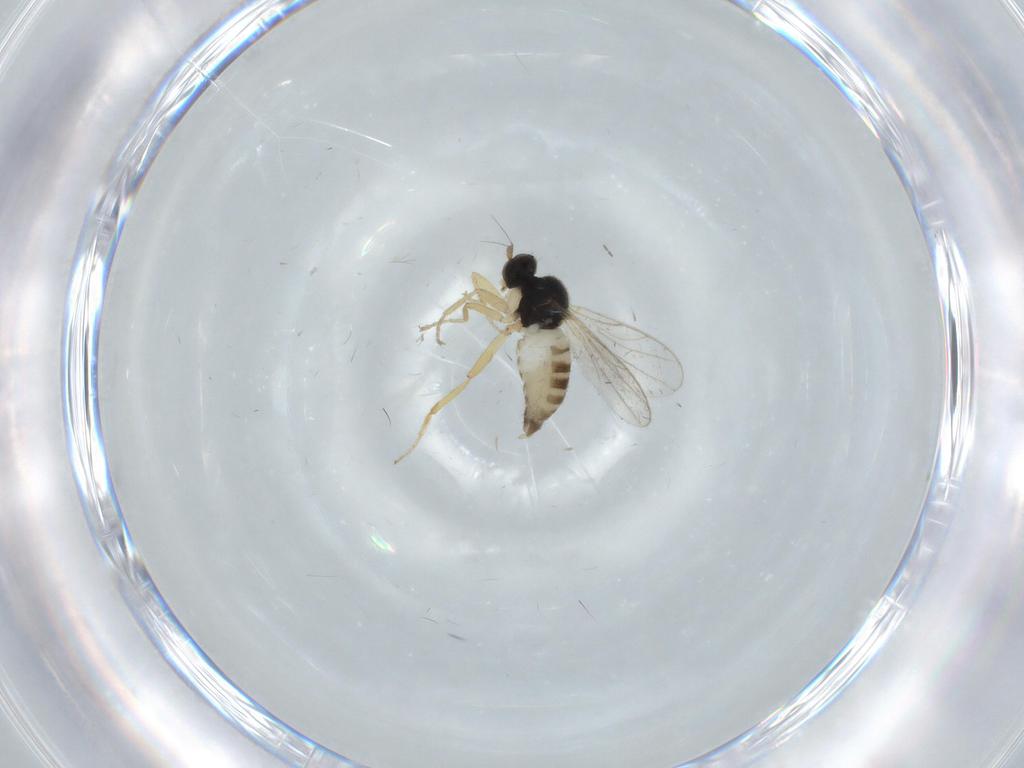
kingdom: Animalia
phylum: Arthropoda
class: Insecta
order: Diptera
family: Hybotidae
